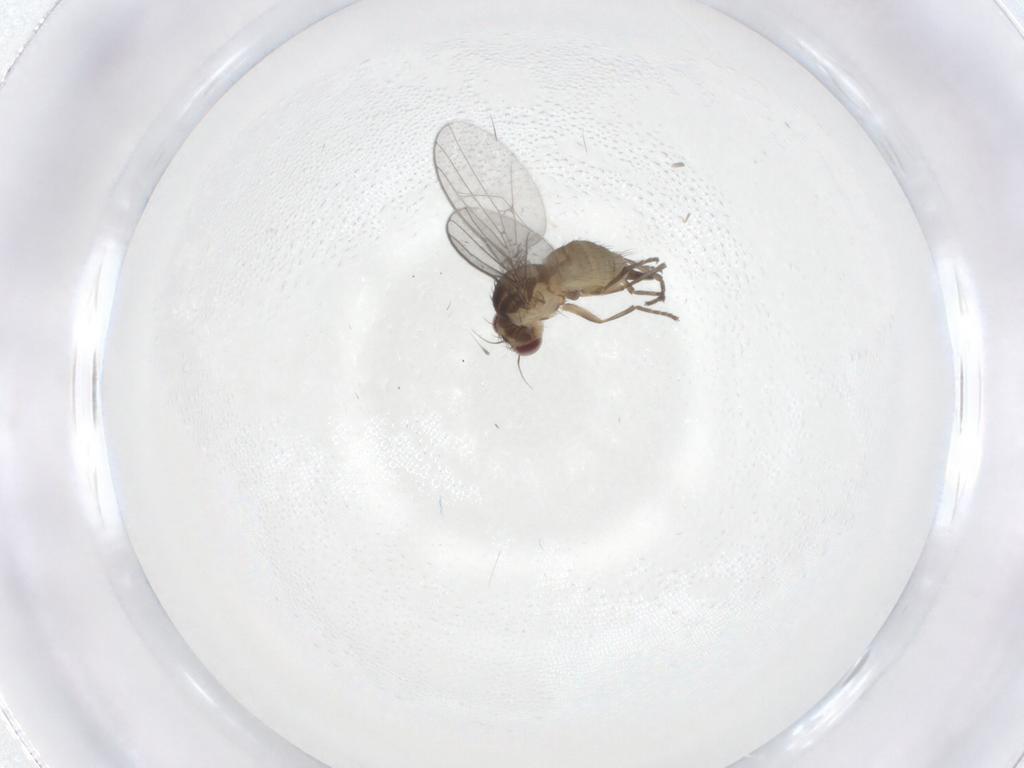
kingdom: Animalia
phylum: Arthropoda
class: Insecta
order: Diptera
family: Agromyzidae
